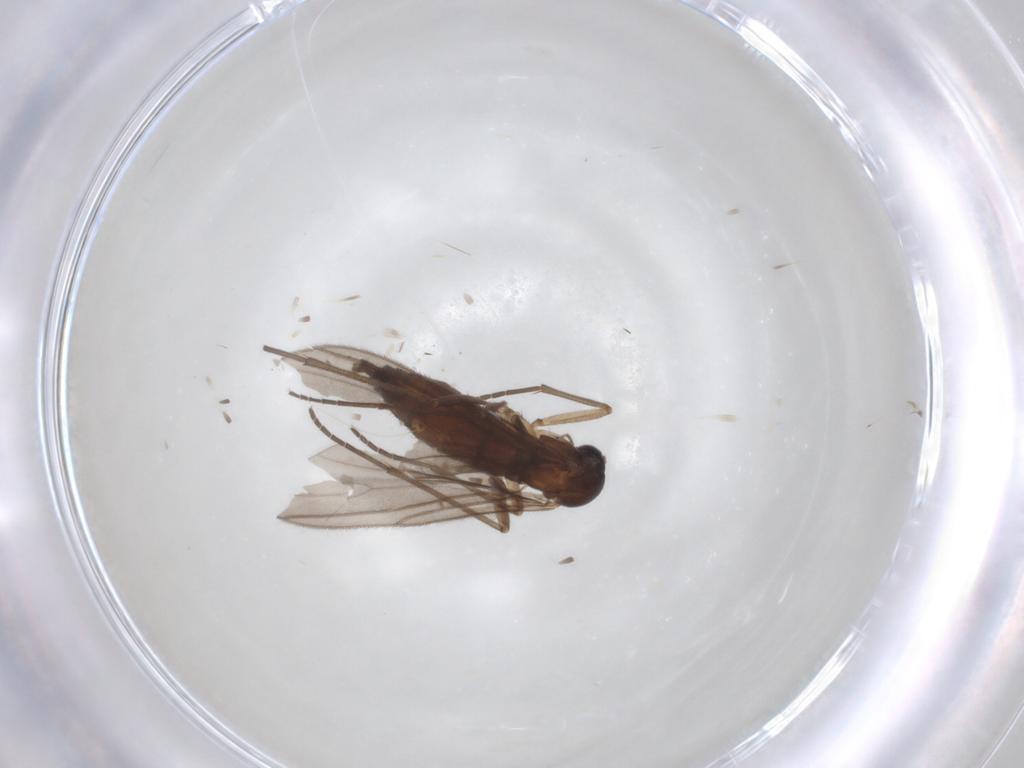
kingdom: Animalia
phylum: Arthropoda
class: Insecta
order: Diptera
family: Sciaridae
